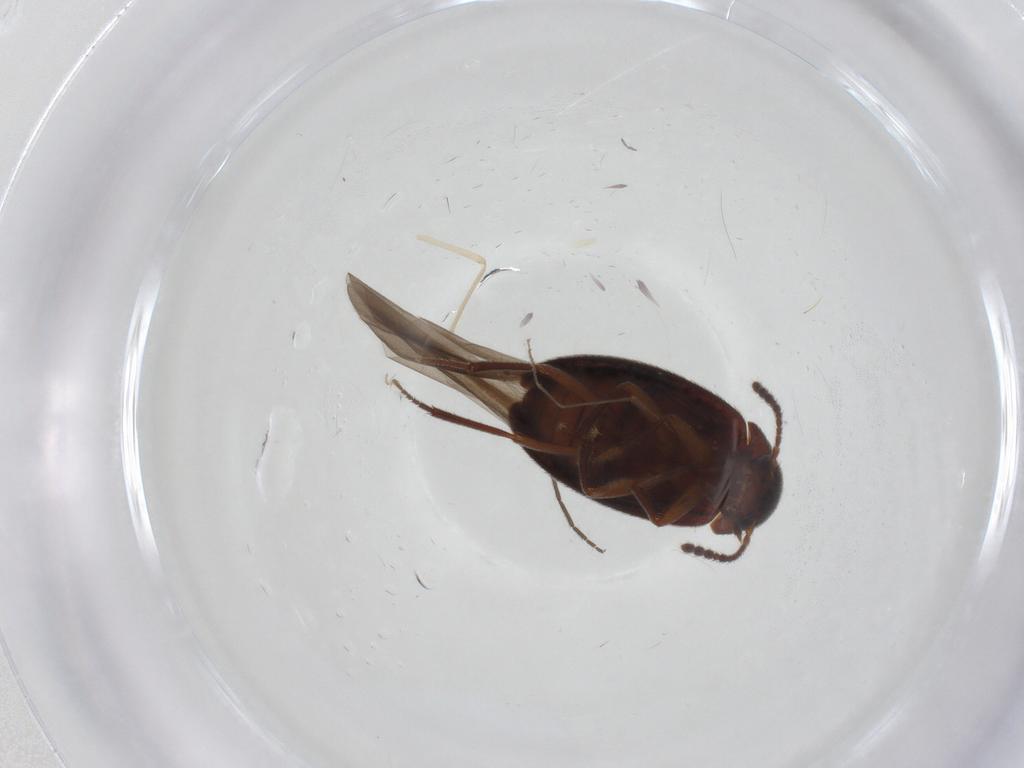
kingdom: Animalia
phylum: Arthropoda
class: Insecta
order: Coleoptera
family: Leiodidae
